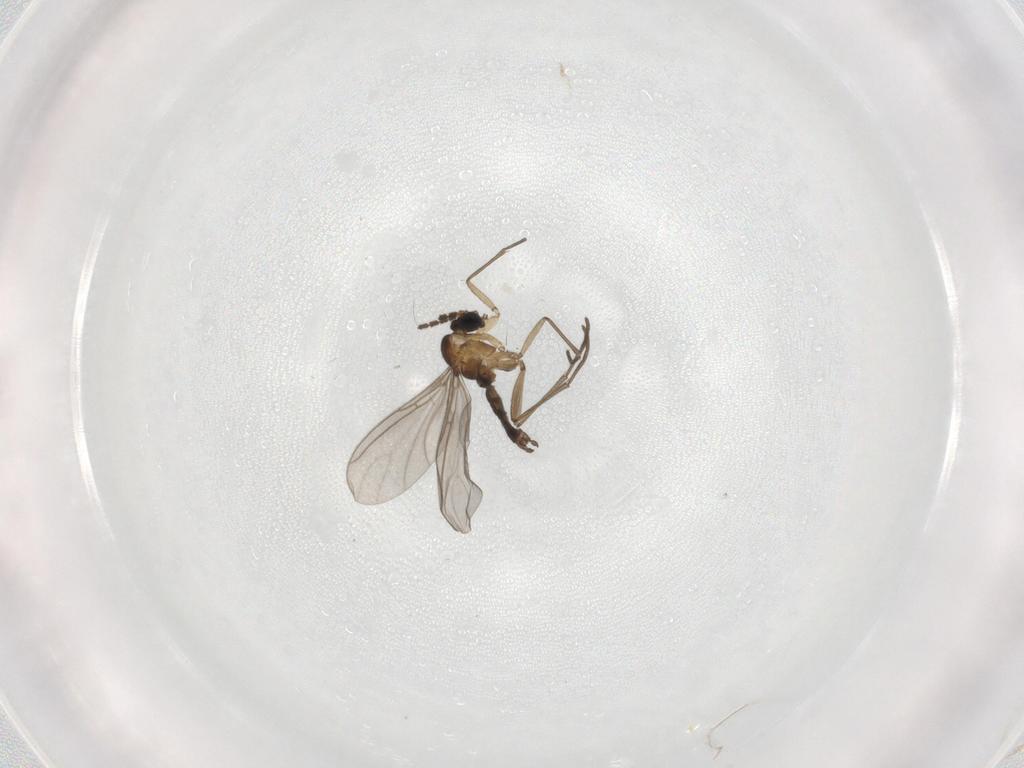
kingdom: Animalia
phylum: Arthropoda
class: Insecta
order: Diptera
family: Sciaridae
